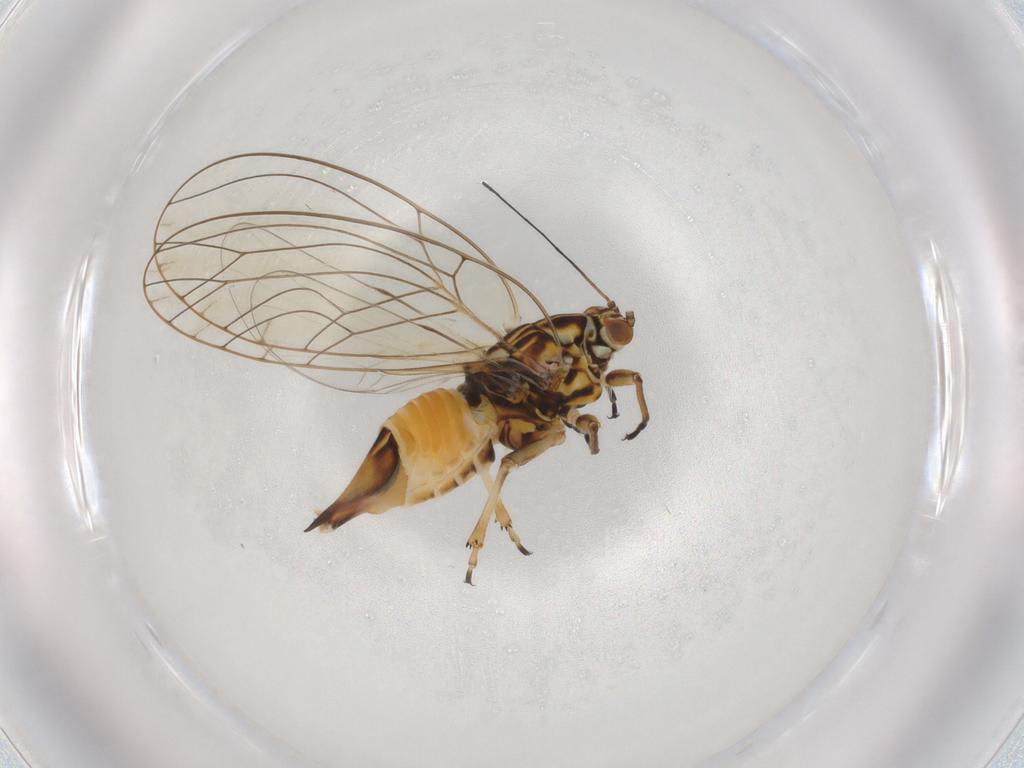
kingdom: Animalia
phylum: Arthropoda
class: Insecta
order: Hemiptera
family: Triozidae
